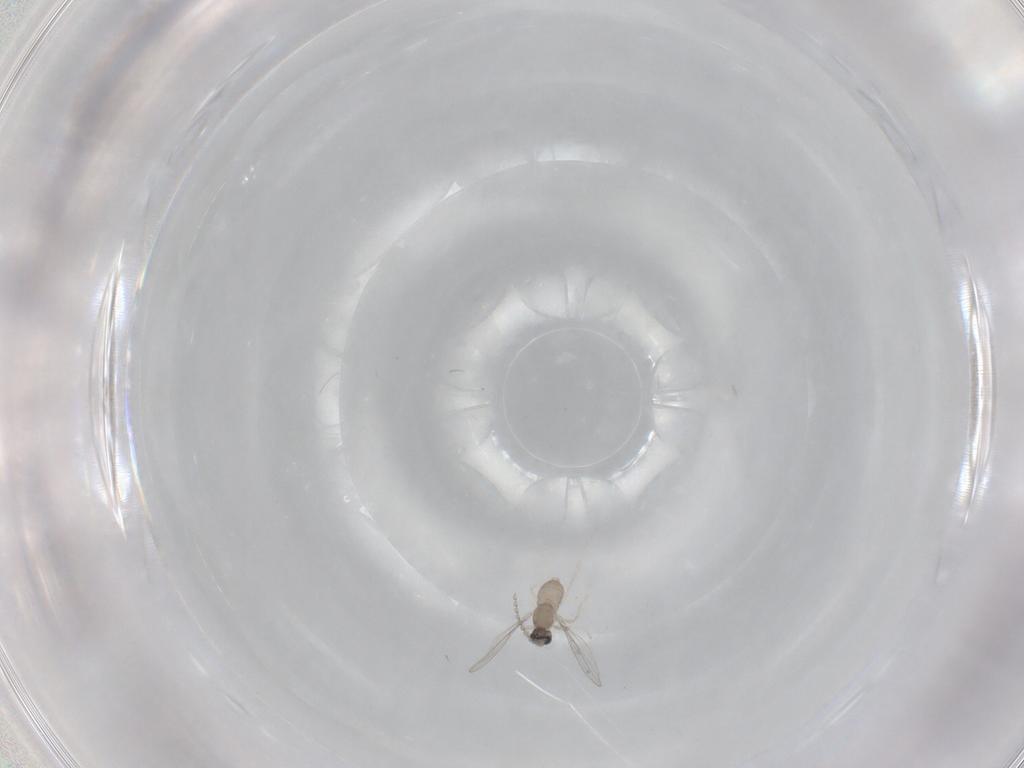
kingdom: Animalia
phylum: Arthropoda
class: Insecta
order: Diptera
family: Cecidomyiidae
